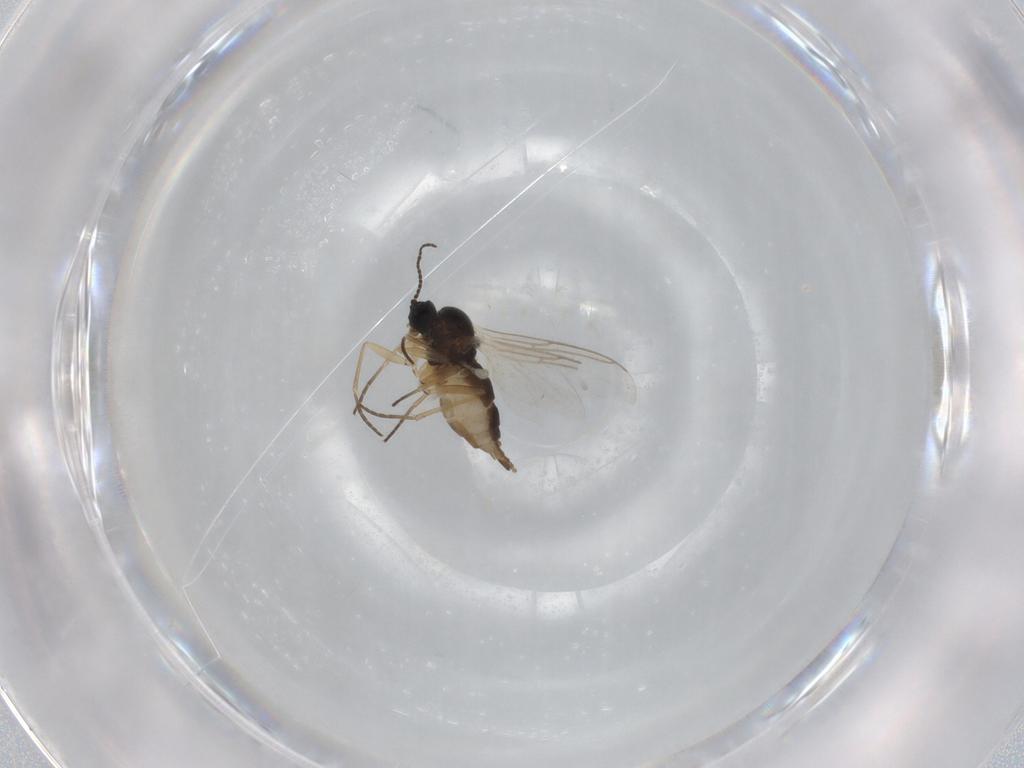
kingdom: Animalia
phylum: Arthropoda
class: Insecta
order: Diptera
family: Sciaridae
